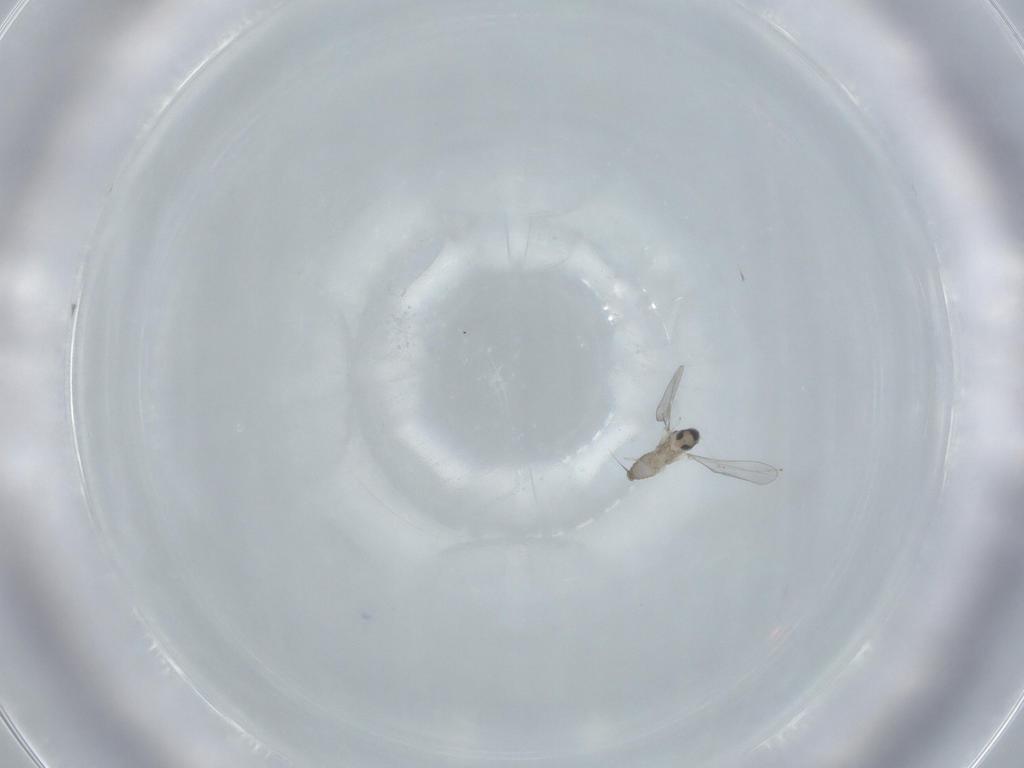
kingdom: Animalia
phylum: Arthropoda
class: Insecta
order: Diptera
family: Cecidomyiidae
